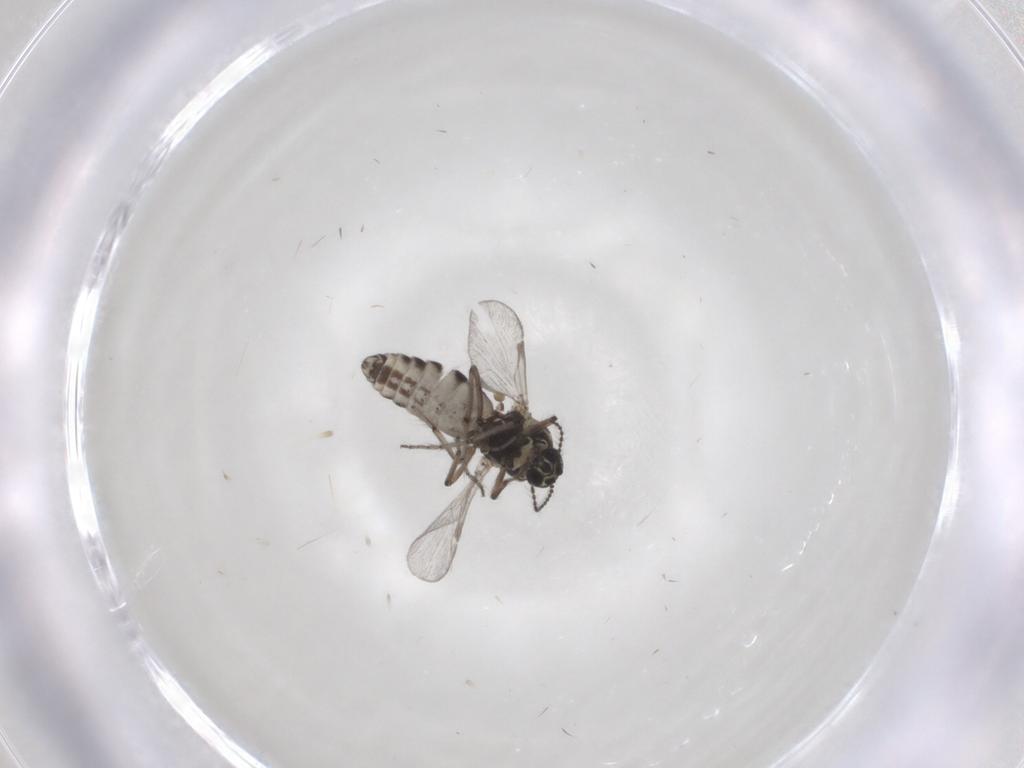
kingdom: Animalia
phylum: Arthropoda
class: Insecta
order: Diptera
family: Ceratopogonidae
